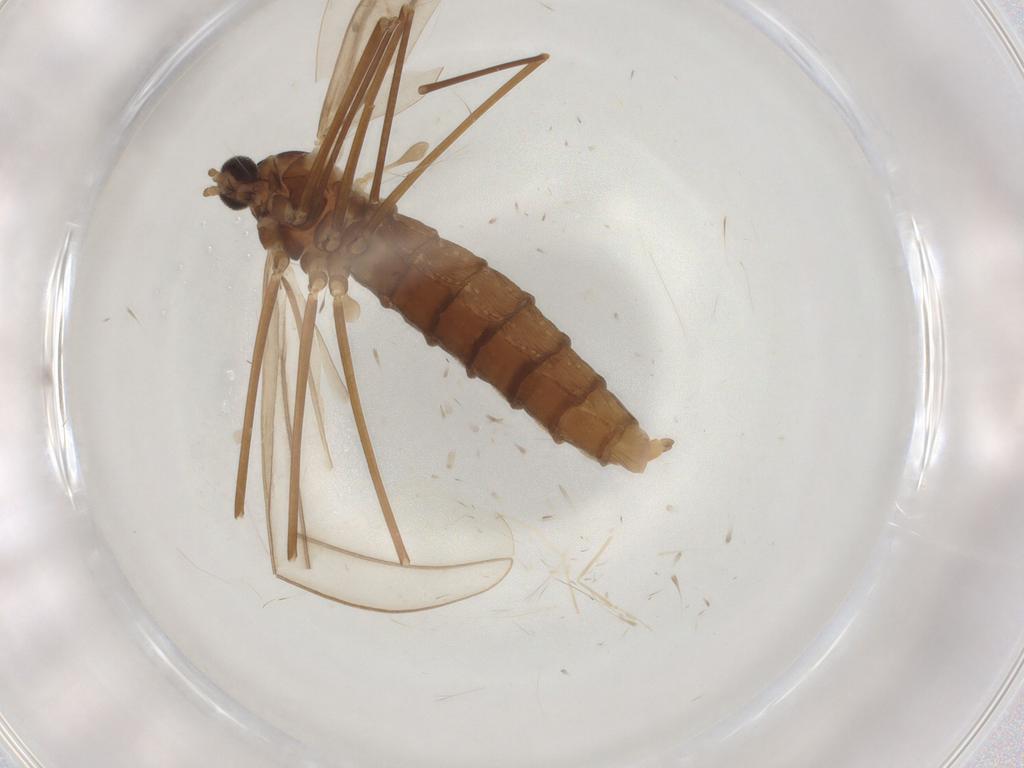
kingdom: Animalia
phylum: Arthropoda
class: Insecta
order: Diptera
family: Cecidomyiidae
